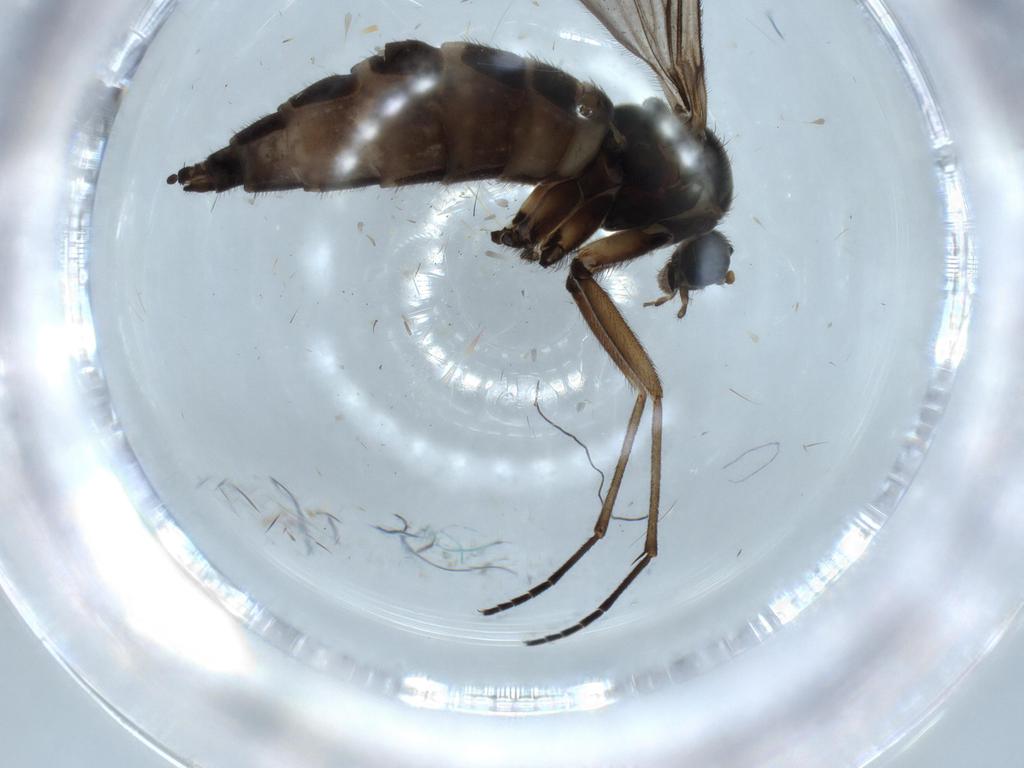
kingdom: Animalia
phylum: Arthropoda
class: Insecta
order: Diptera
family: Sciaridae
